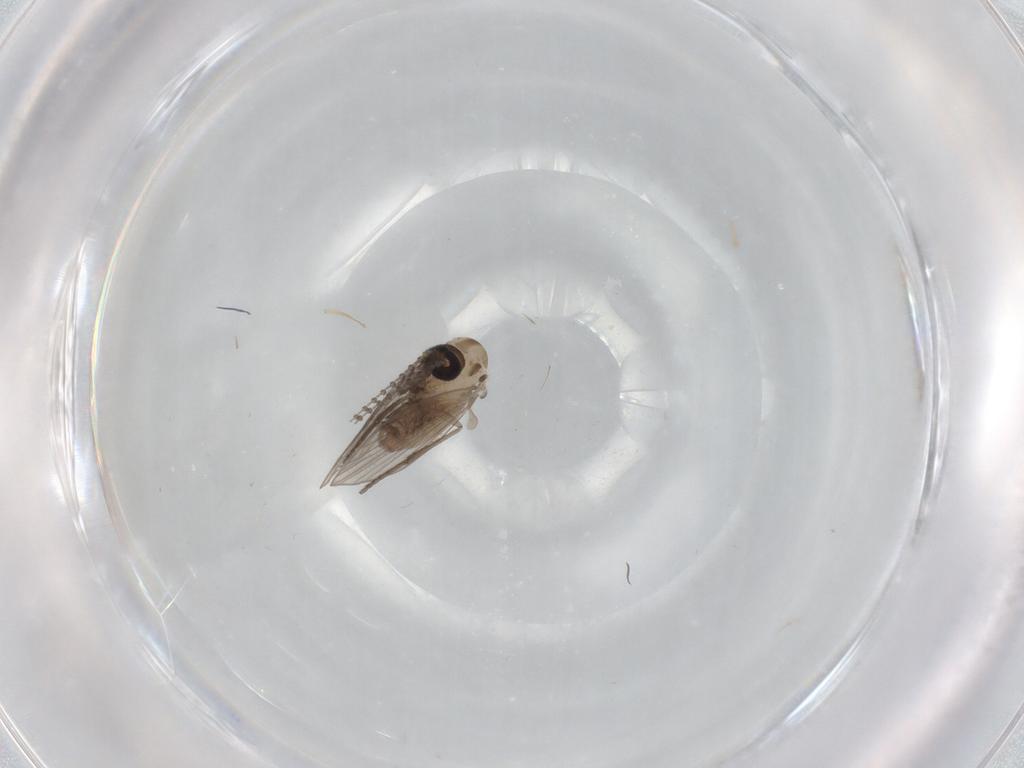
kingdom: Animalia
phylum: Arthropoda
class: Insecta
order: Diptera
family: Psychodidae
